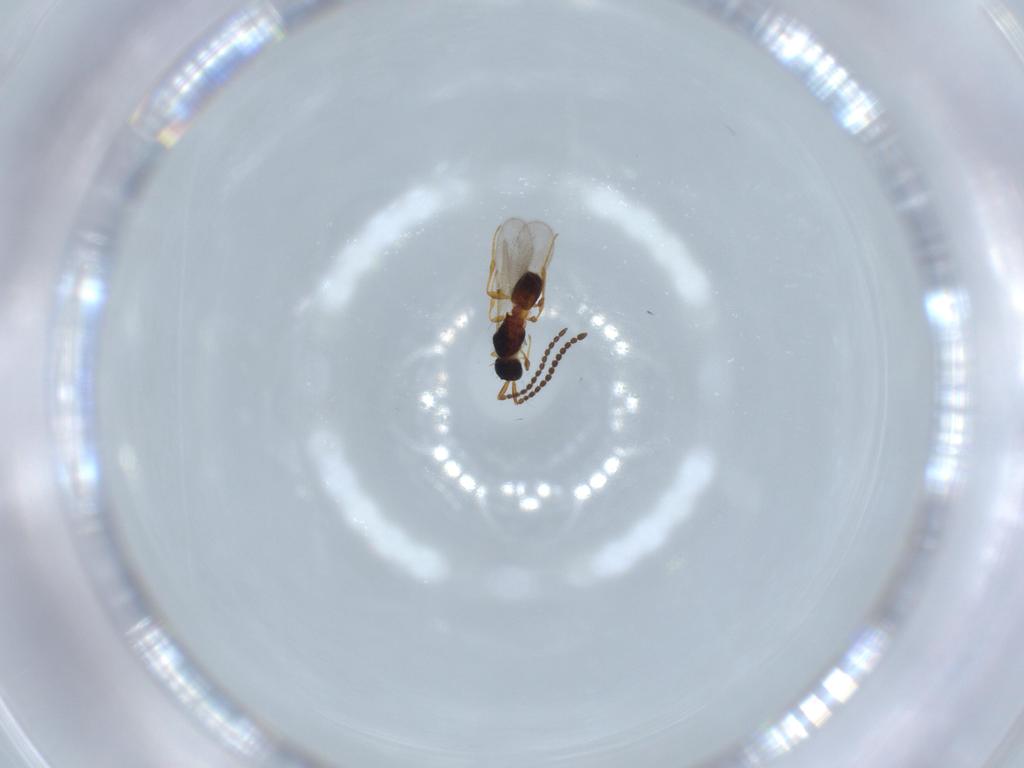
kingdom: Animalia
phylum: Arthropoda
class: Insecta
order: Hymenoptera
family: Diapriidae
